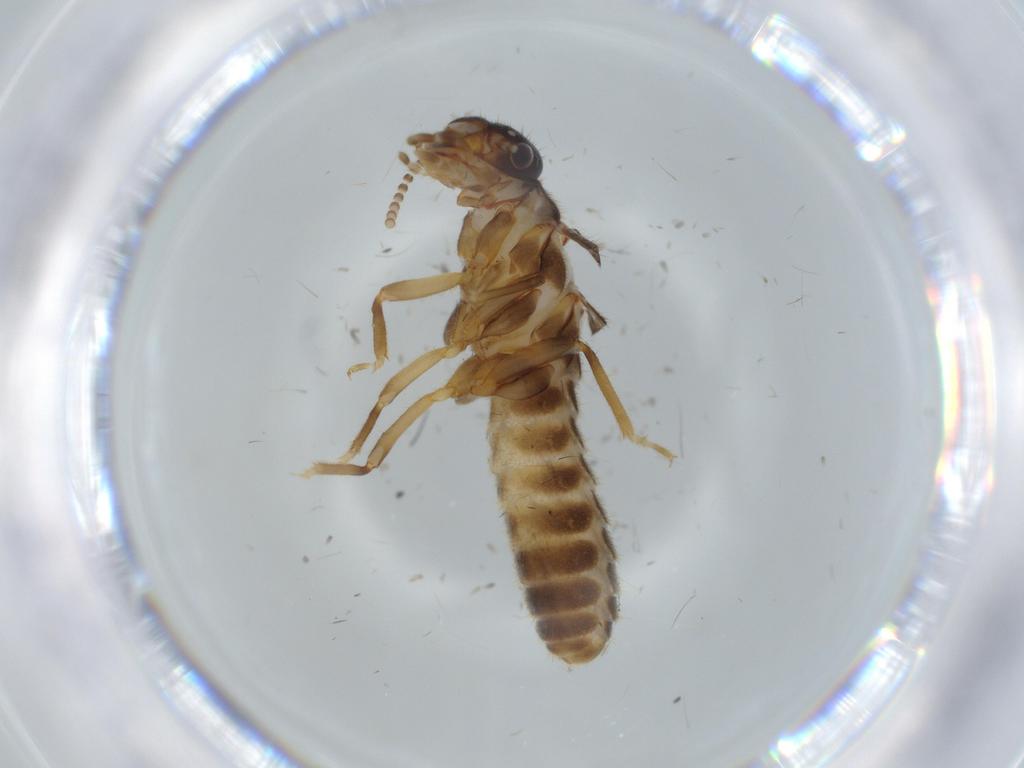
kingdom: Animalia
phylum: Arthropoda
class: Insecta
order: Blattodea
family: Termitidae
